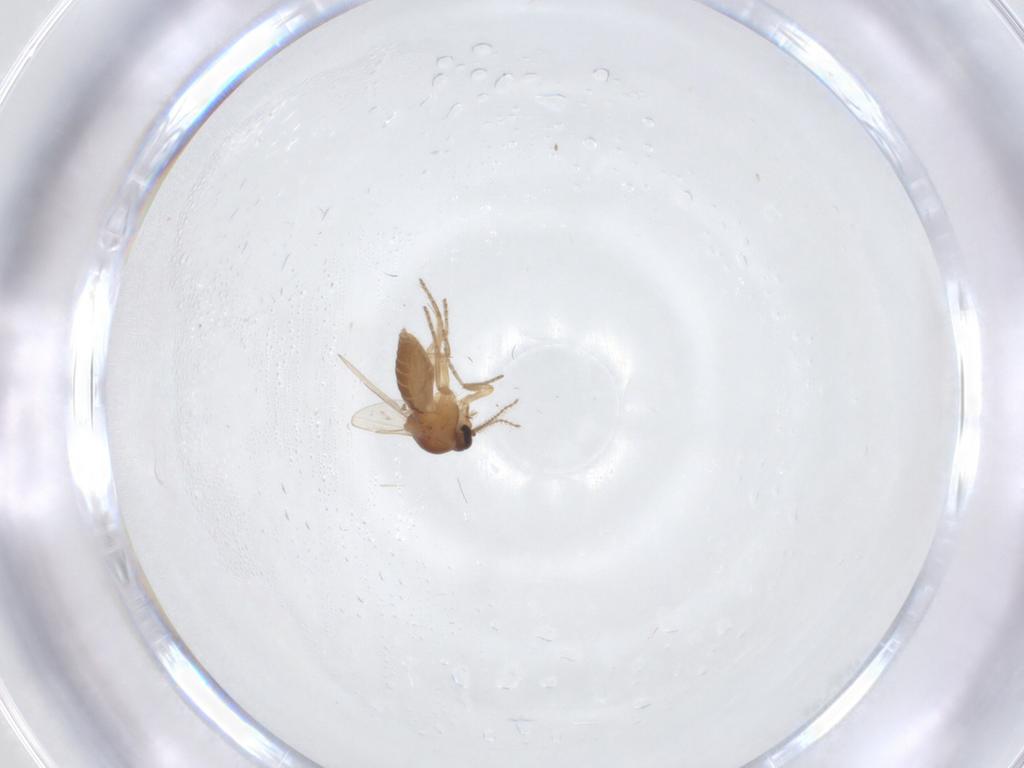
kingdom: Animalia
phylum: Arthropoda
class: Insecta
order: Diptera
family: Ceratopogonidae
